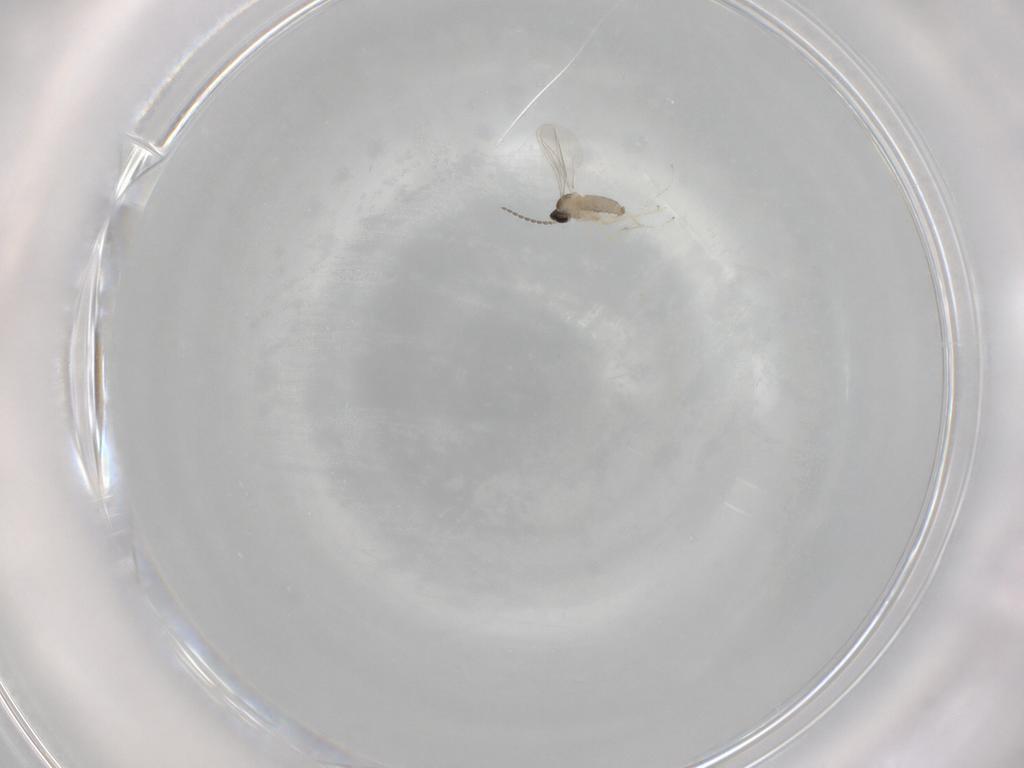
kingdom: Animalia
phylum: Arthropoda
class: Insecta
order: Diptera
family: Cecidomyiidae
